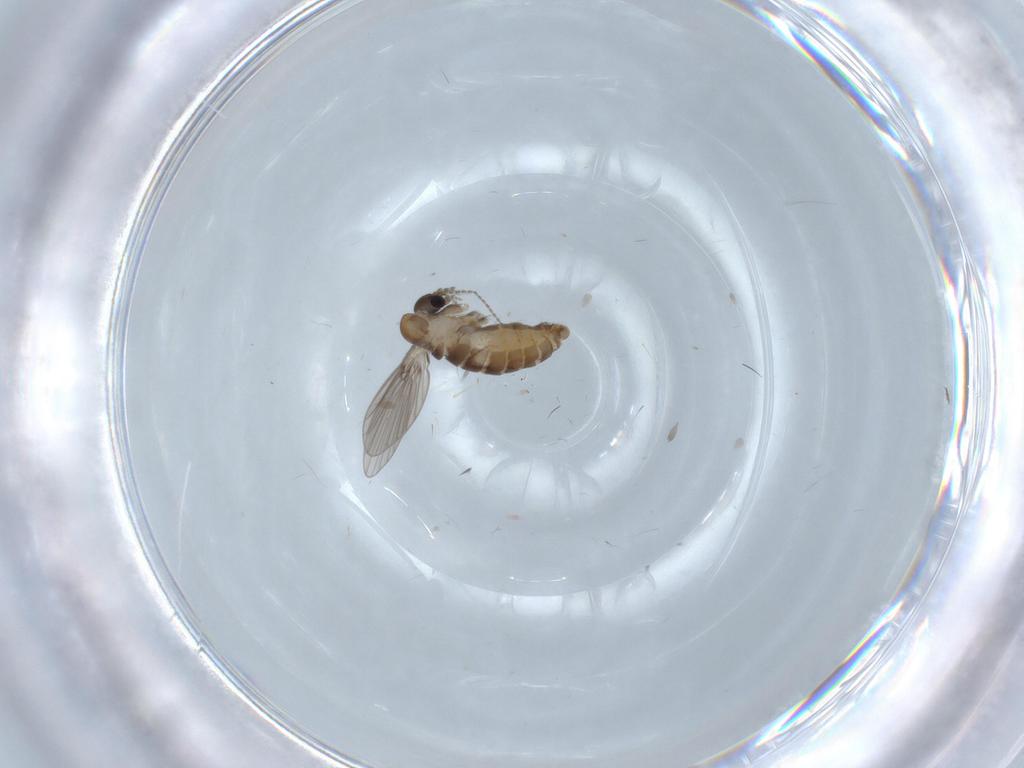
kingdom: Animalia
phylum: Arthropoda
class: Insecta
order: Diptera
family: Psychodidae
